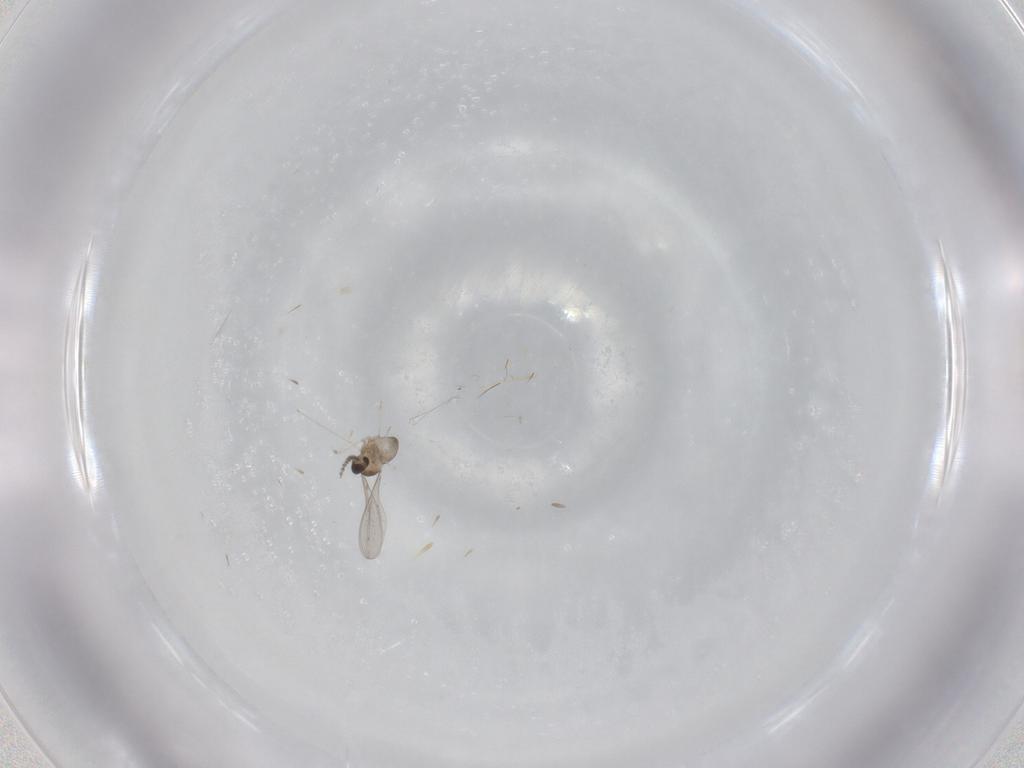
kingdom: Animalia
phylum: Arthropoda
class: Insecta
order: Diptera
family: Cecidomyiidae
